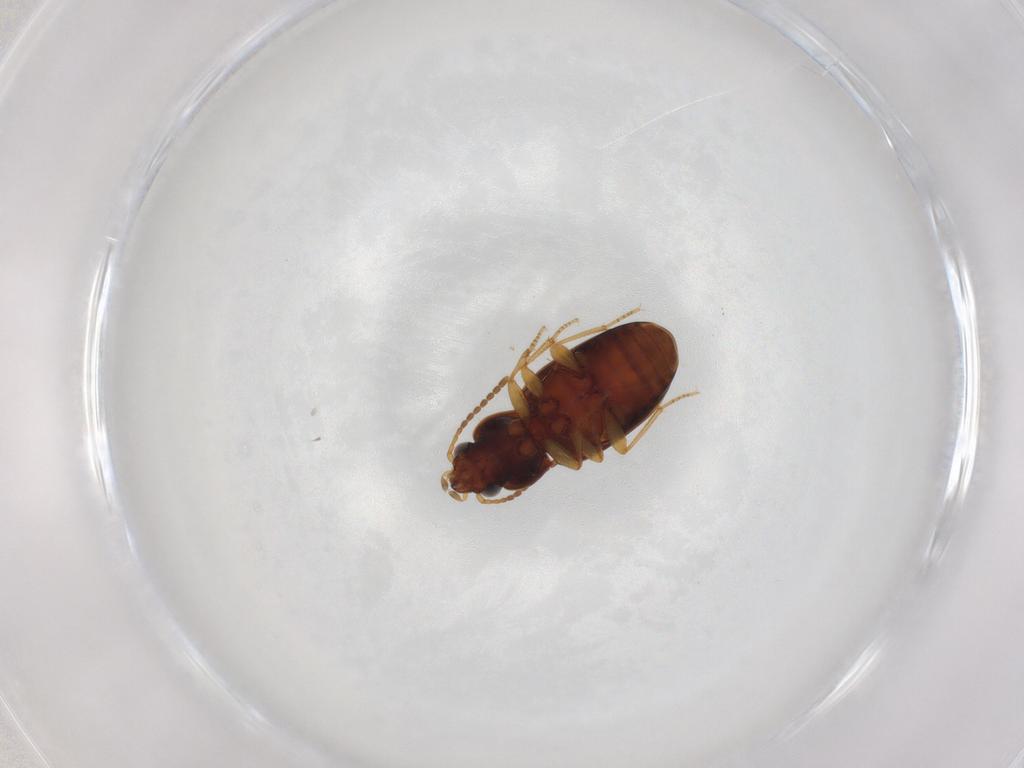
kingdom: Animalia
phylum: Arthropoda
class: Insecta
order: Coleoptera
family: Carabidae
